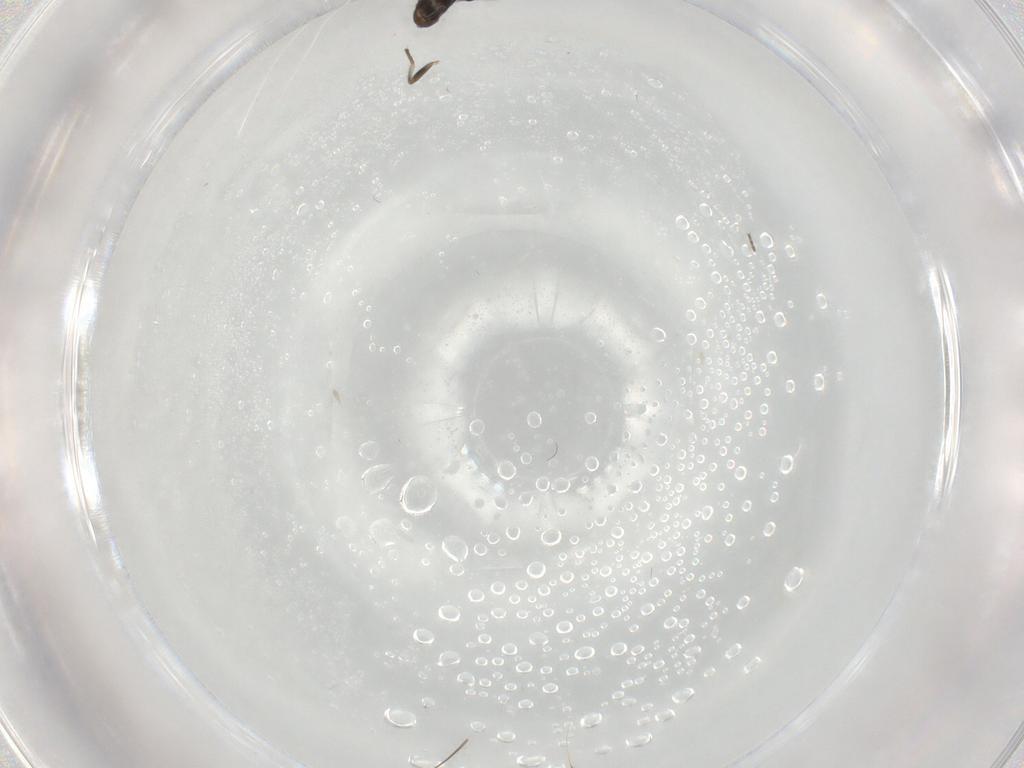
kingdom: Animalia
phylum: Arthropoda
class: Insecta
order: Diptera
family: Phoridae
